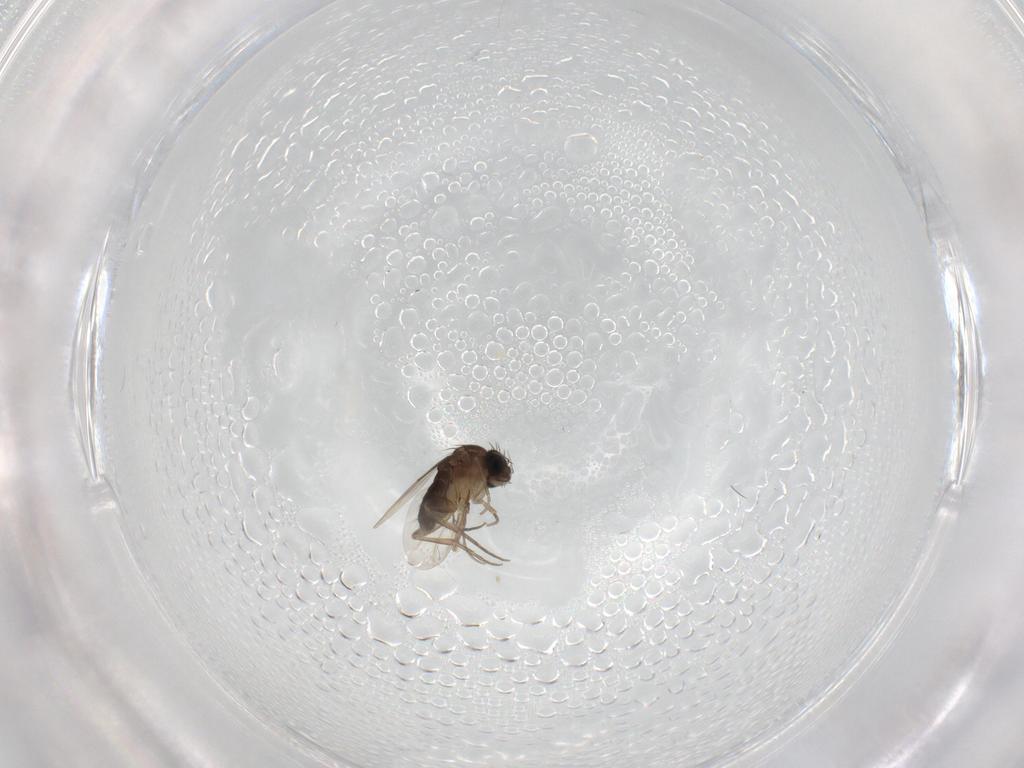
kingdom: Animalia
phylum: Arthropoda
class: Insecta
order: Diptera
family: Phoridae
